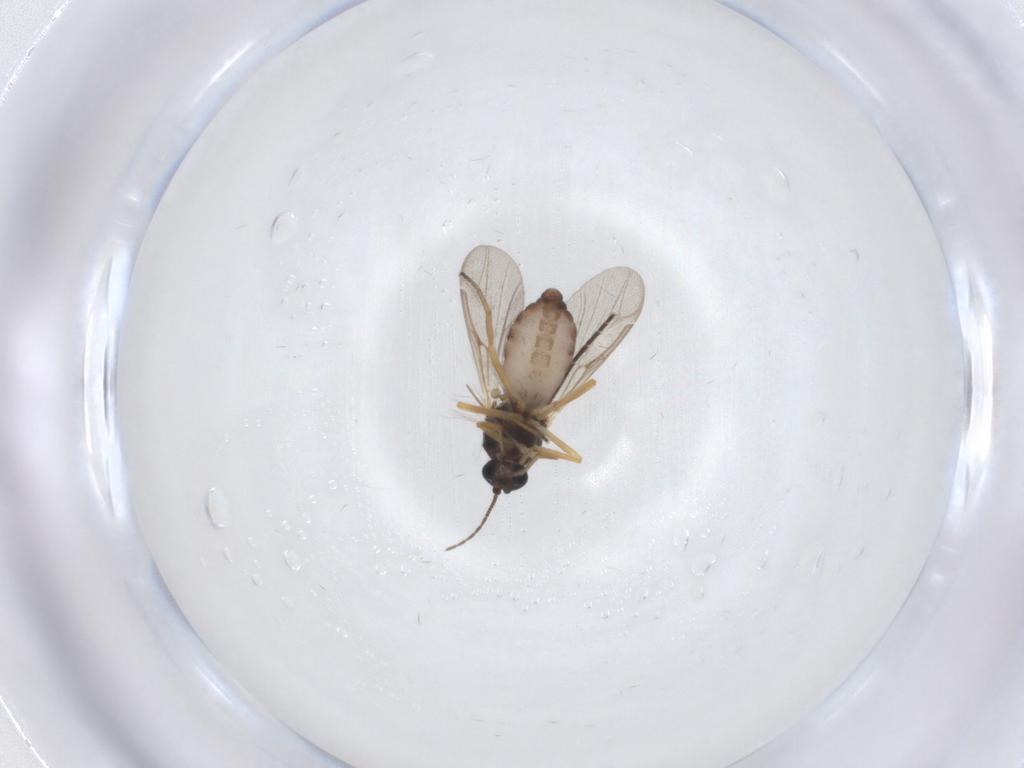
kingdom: Animalia
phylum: Arthropoda
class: Insecta
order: Diptera
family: Ceratopogonidae
